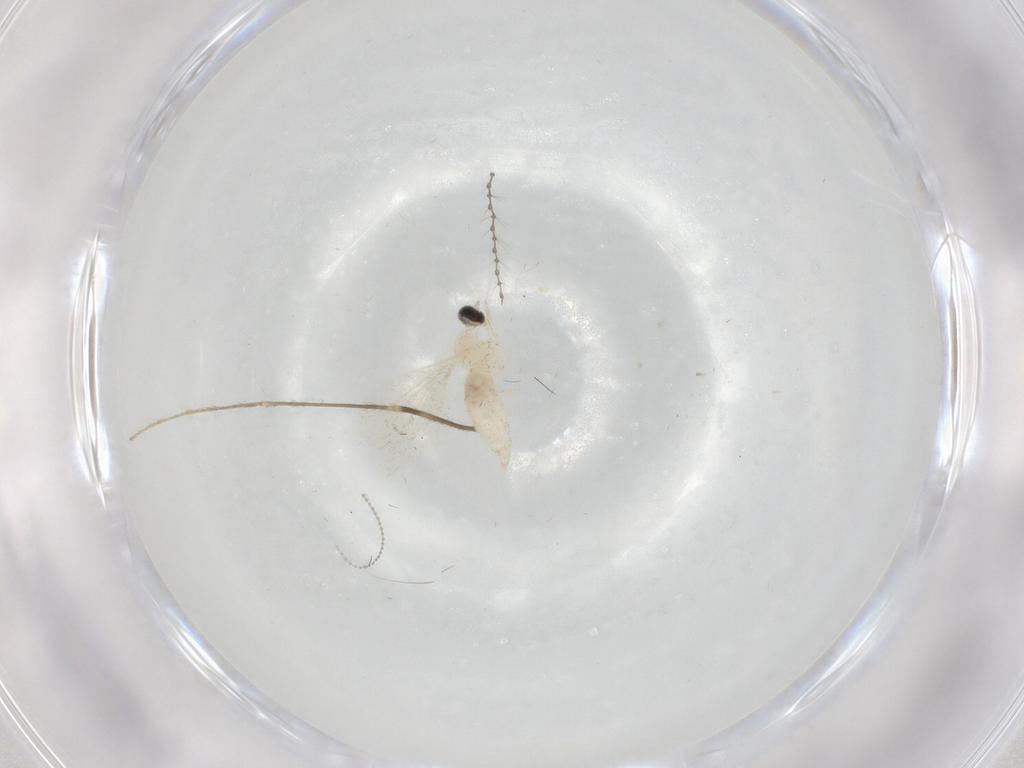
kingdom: Animalia
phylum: Arthropoda
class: Insecta
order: Diptera
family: Cecidomyiidae
